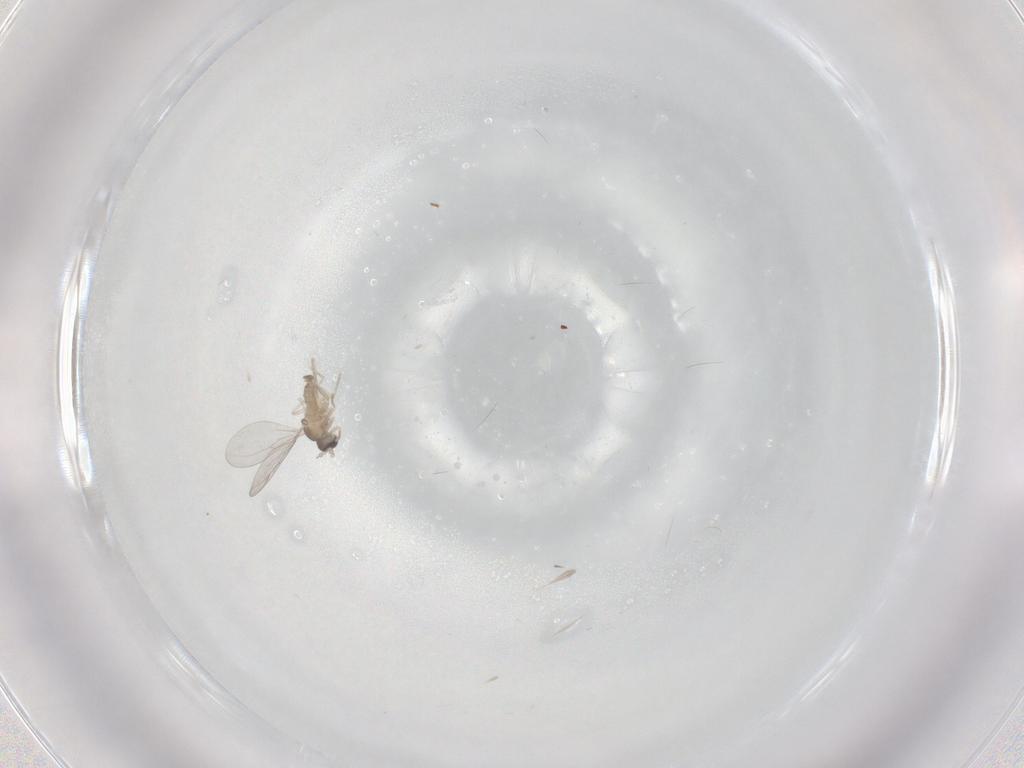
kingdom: Animalia
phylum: Arthropoda
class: Insecta
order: Diptera
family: Cecidomyiidae
